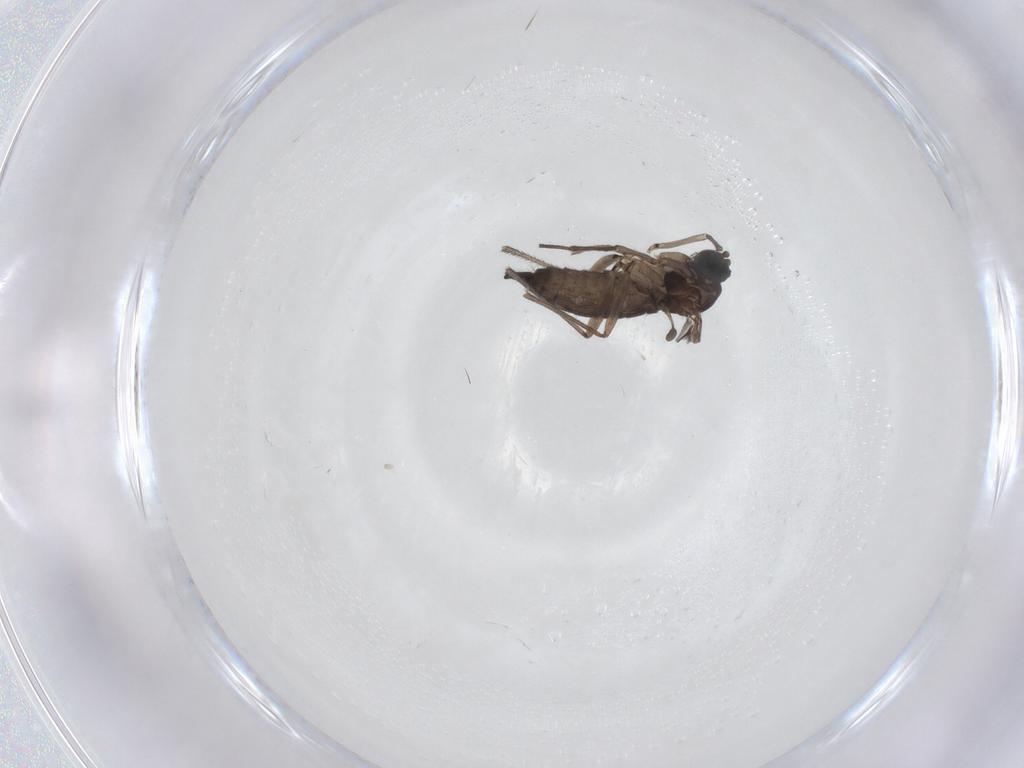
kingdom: Animalia
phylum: Arthropoda
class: Insecta
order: Diptera
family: Sciaridae
